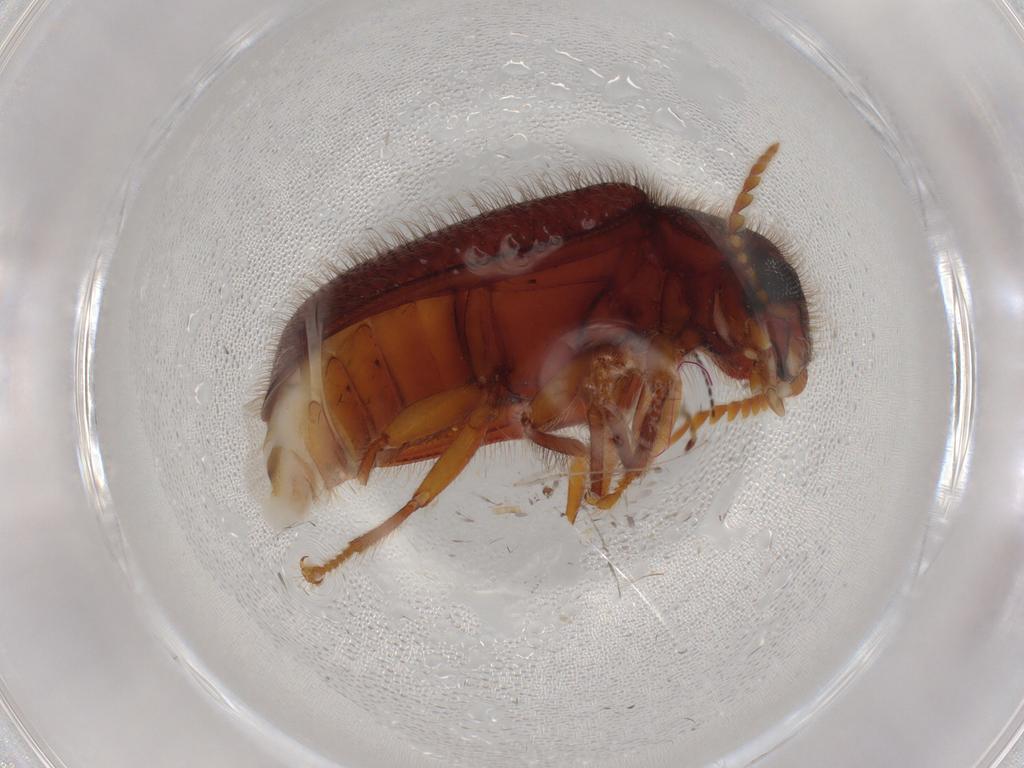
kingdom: Animalia
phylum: Arthropoda
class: Insecta
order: Coleoptera
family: Rhadalidae
